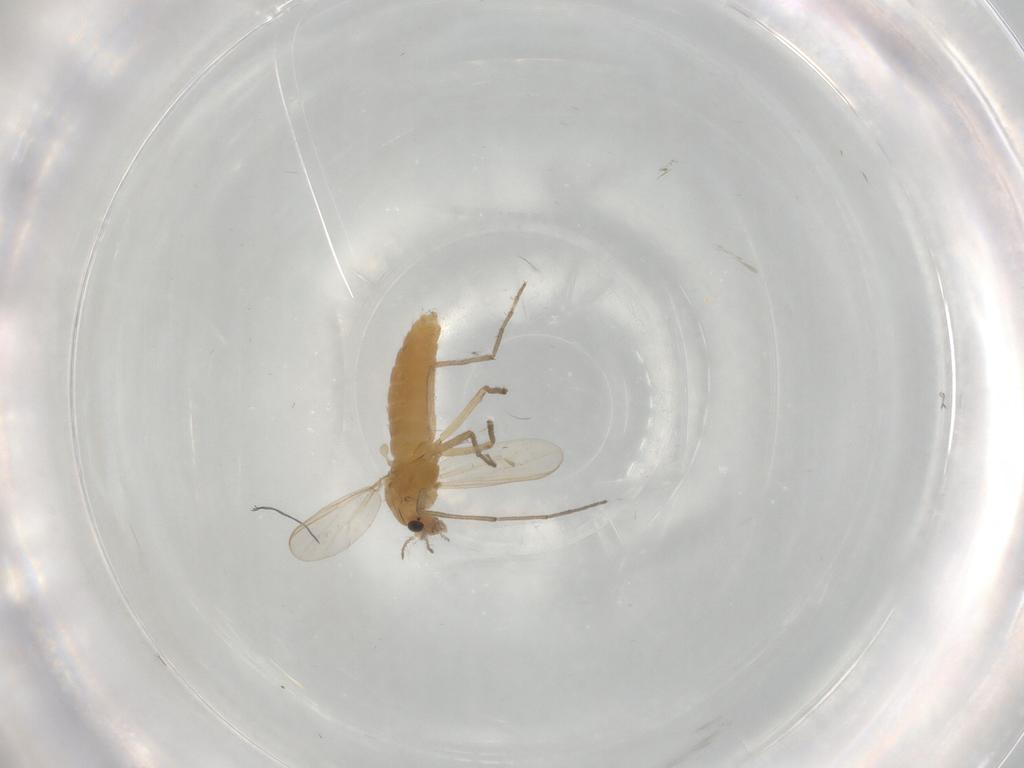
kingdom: Animalia
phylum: Arthropoda
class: Insecta
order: Diptera
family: Chironomidae
